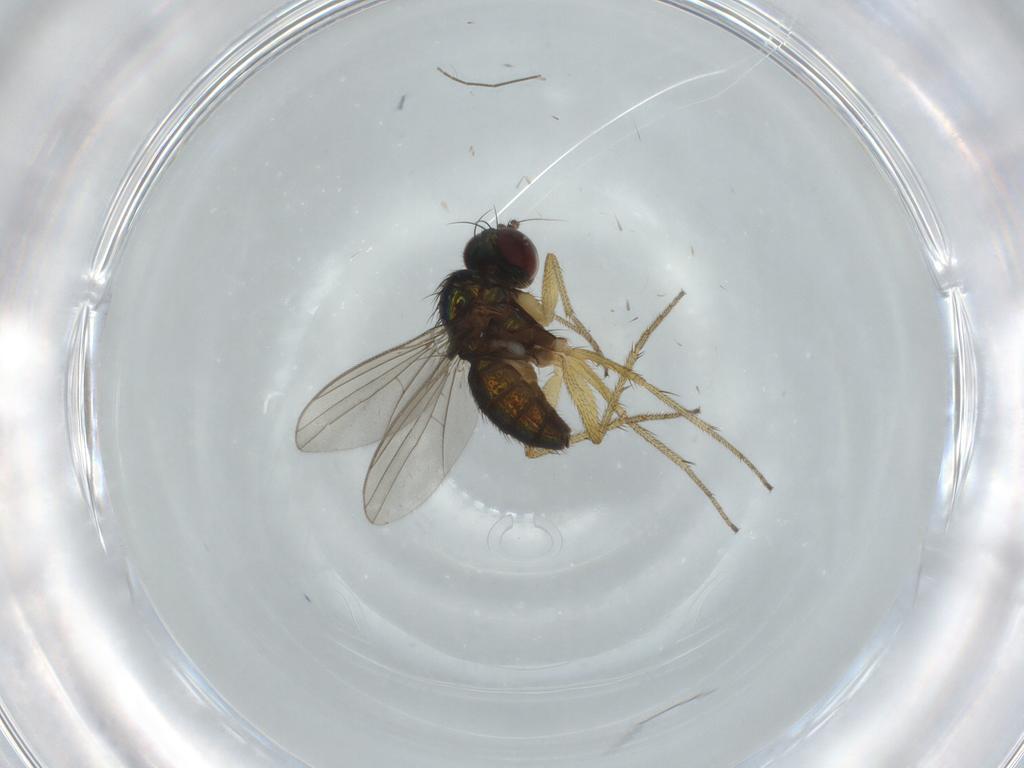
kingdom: Animalia
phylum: Arthropoda
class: Insecta
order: Diptera
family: Dolichopodidae
